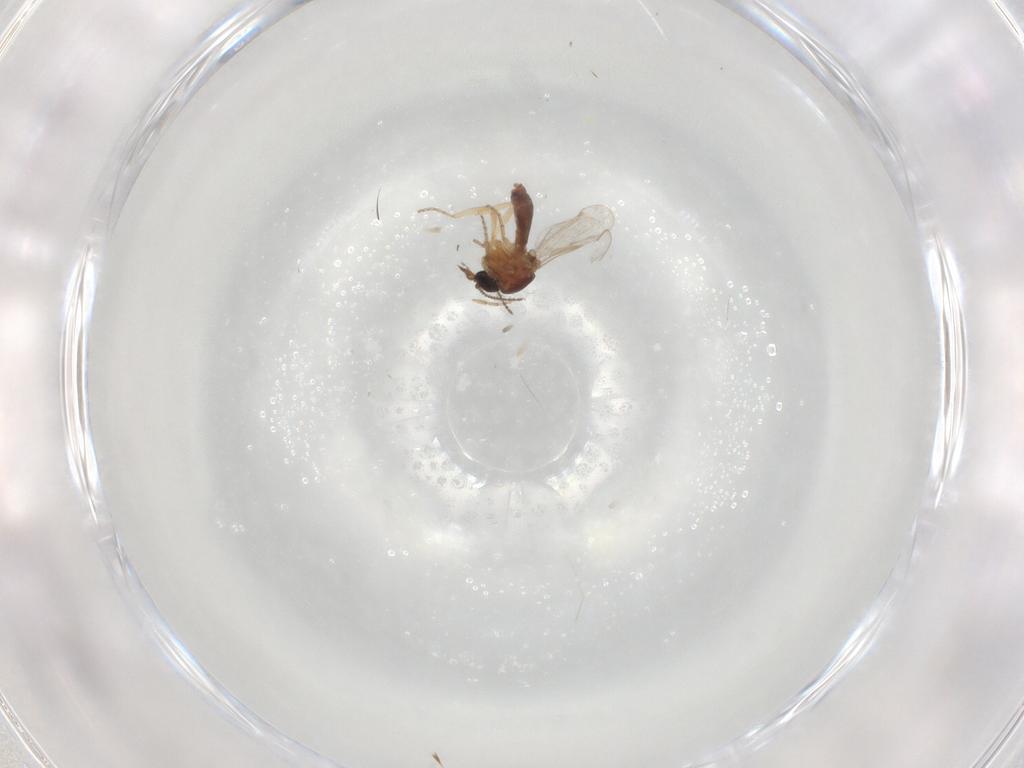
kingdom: Animalia
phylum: Arthropoda
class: Insecta
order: Diptera
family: Ceratopogonidae
